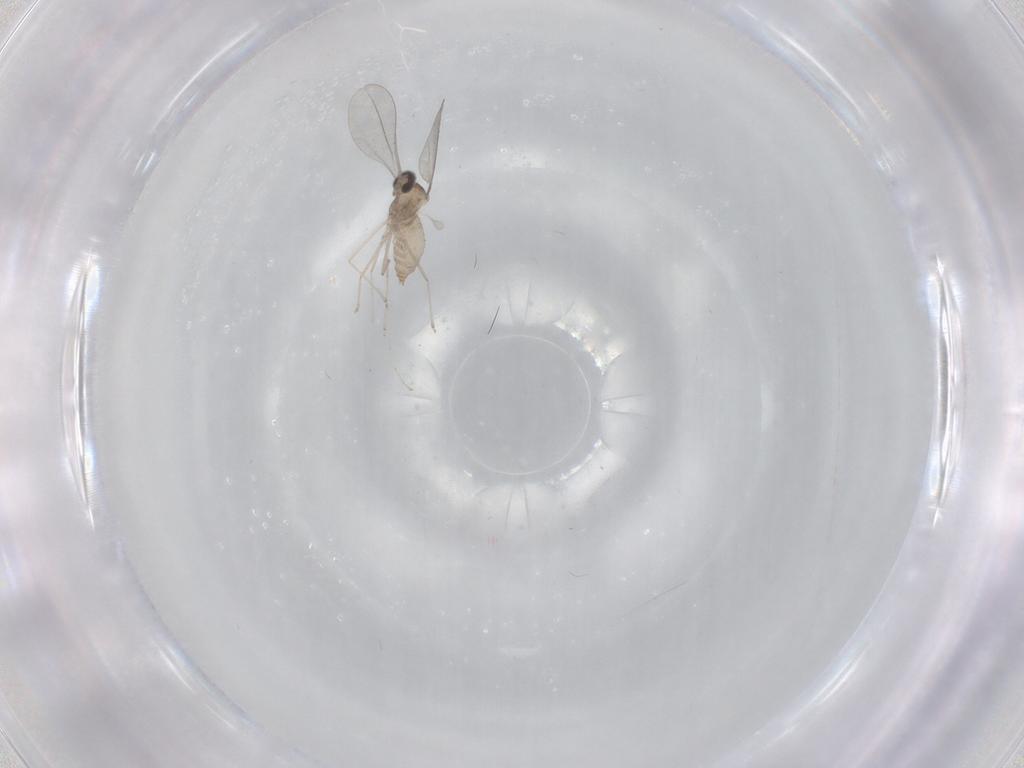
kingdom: Animalia
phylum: Arthropoda
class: Insecta
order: Diptera
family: Cecidomyiidae
